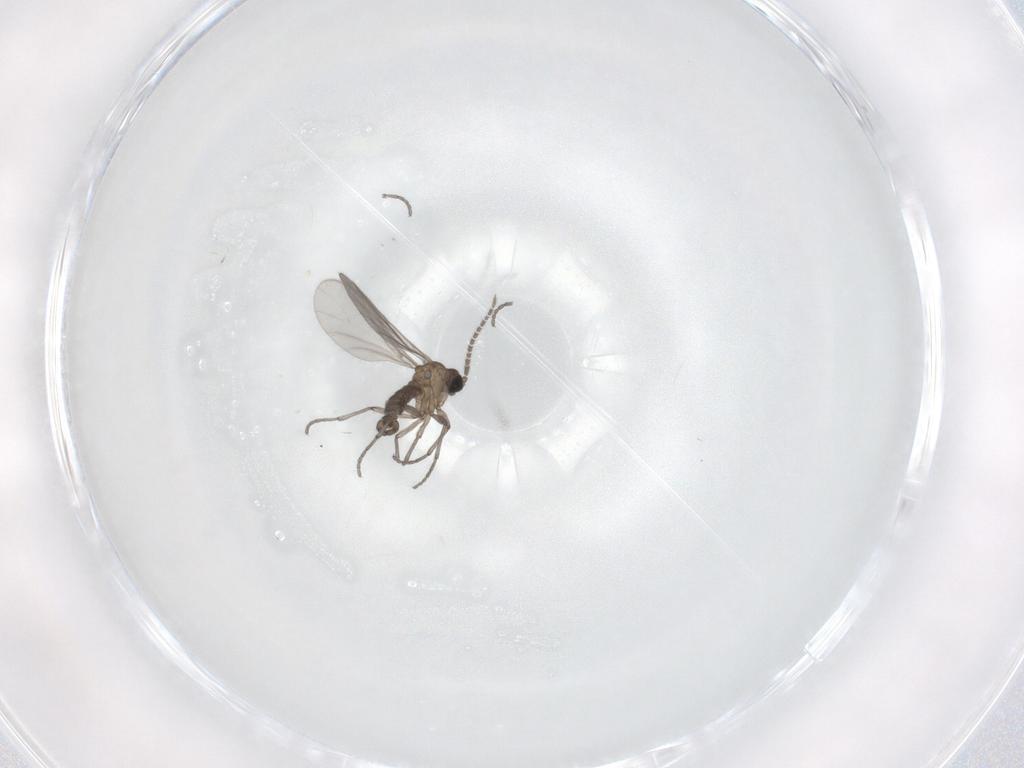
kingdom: Animalia
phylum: Arthropoda
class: Insecta
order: Diptera
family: Sciaridae
